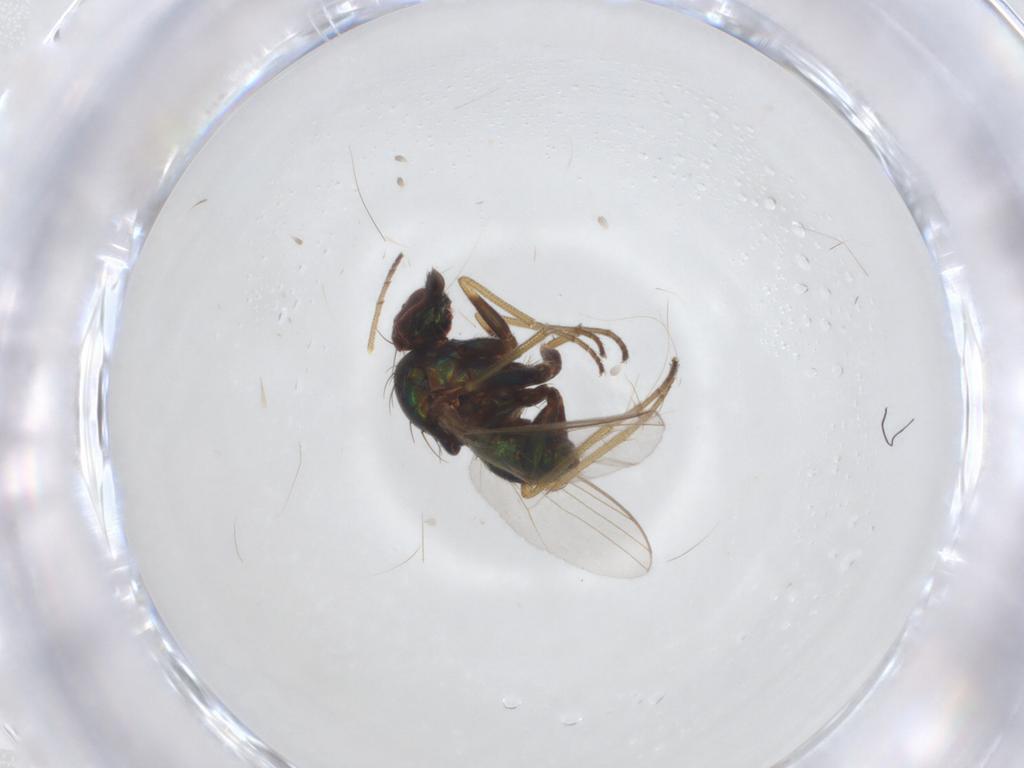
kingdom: Animalia
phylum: Arthropoda
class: Insecta
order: Diptera
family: Dolichopodidae
